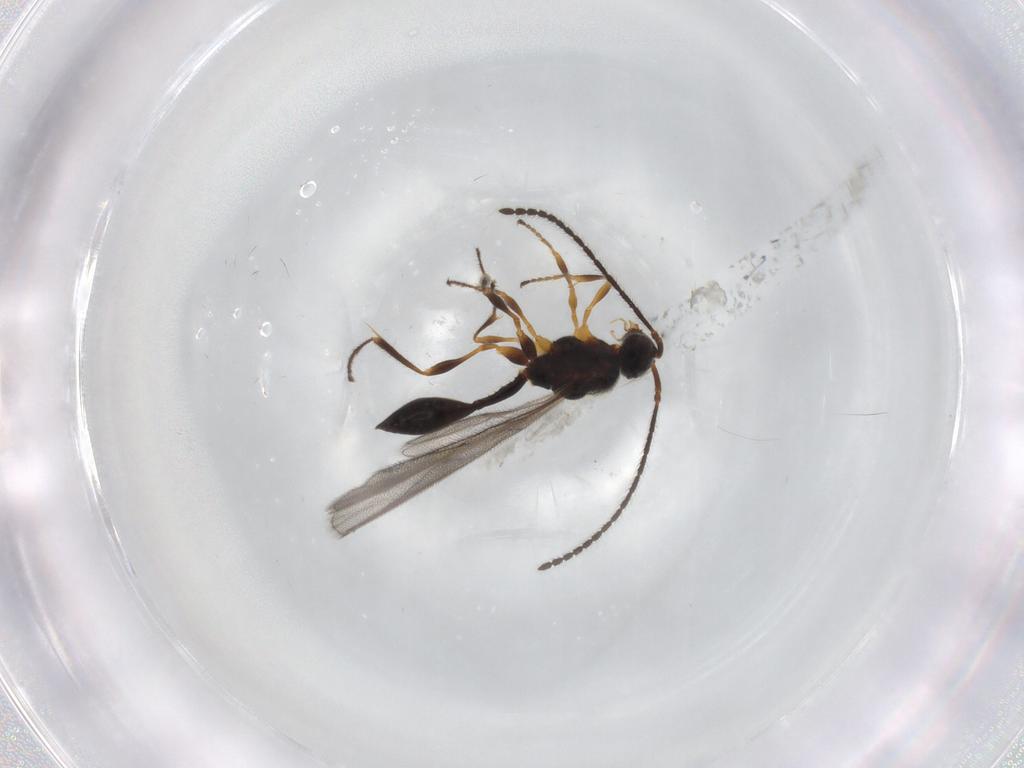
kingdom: Animalia
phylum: Arthropoda
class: Insecta
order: Hymenoptera
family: Diapriidae
